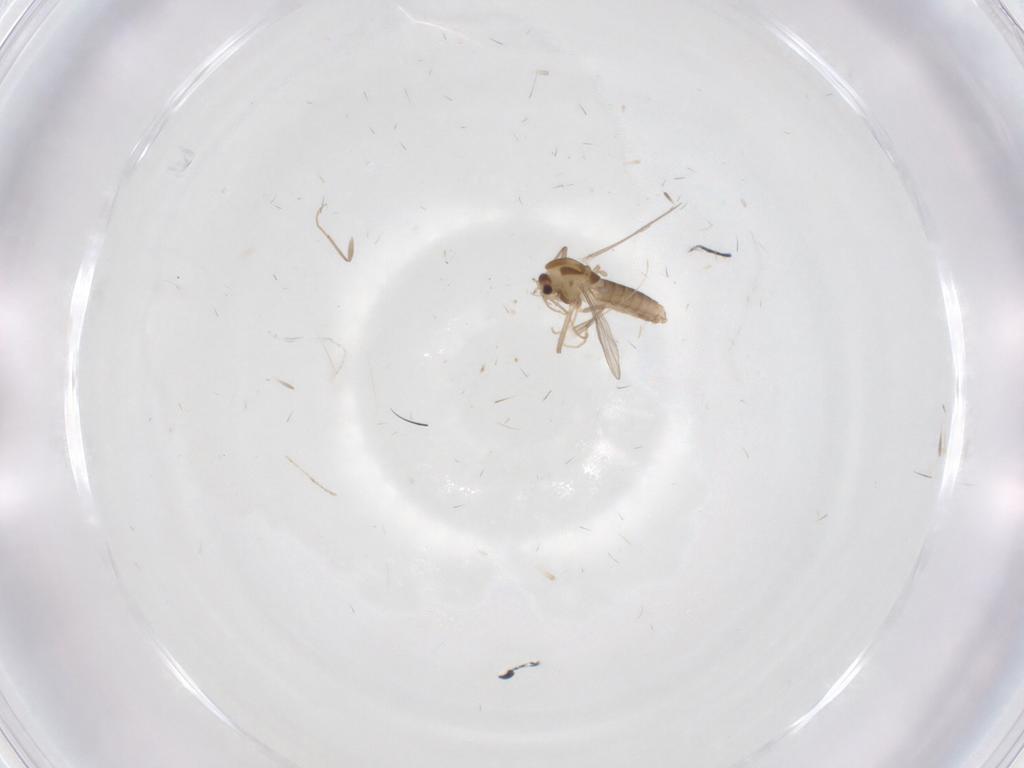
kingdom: Animalia
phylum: Arthropoda
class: Insecta
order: Diptera
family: Chironomidae
